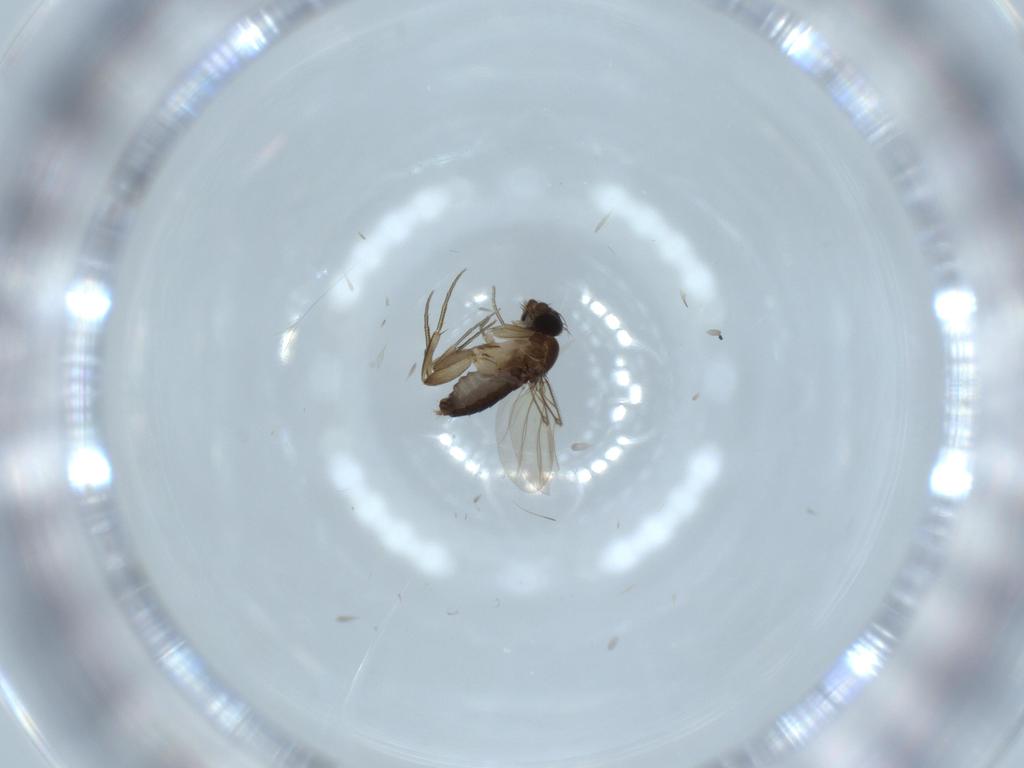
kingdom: Animalia
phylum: Arthropoda
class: Insecta
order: Diptera
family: Phoridae
